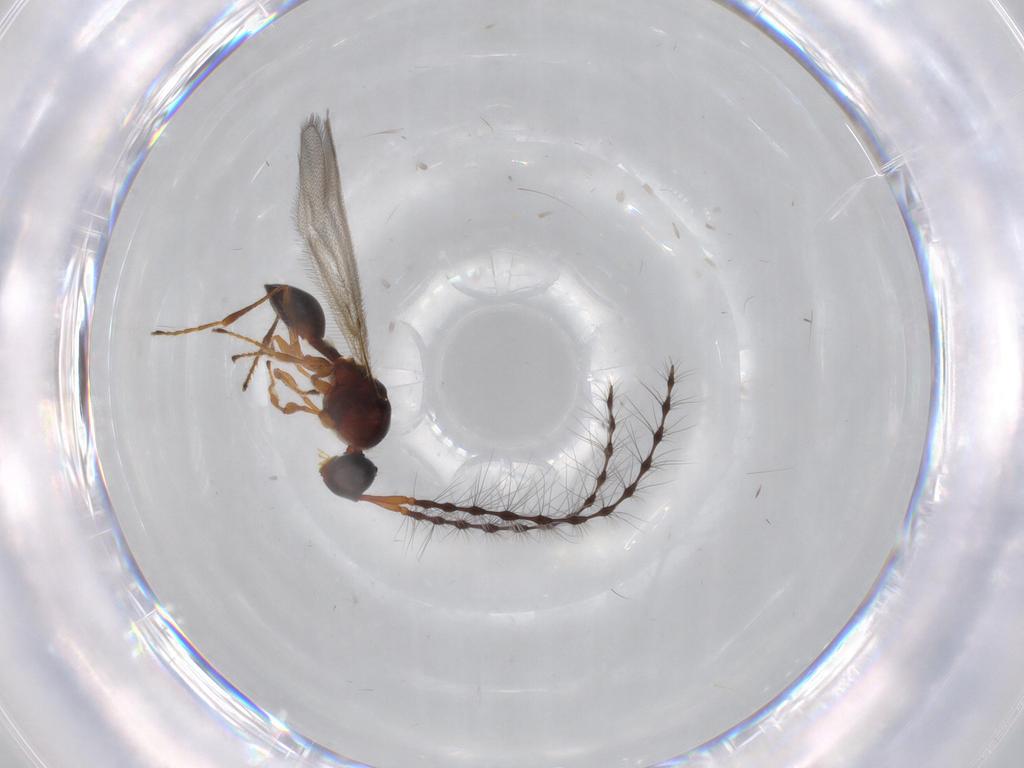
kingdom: Animalia
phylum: Arthropoda
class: Insecta
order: Hymenoptera
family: Diapriidae
